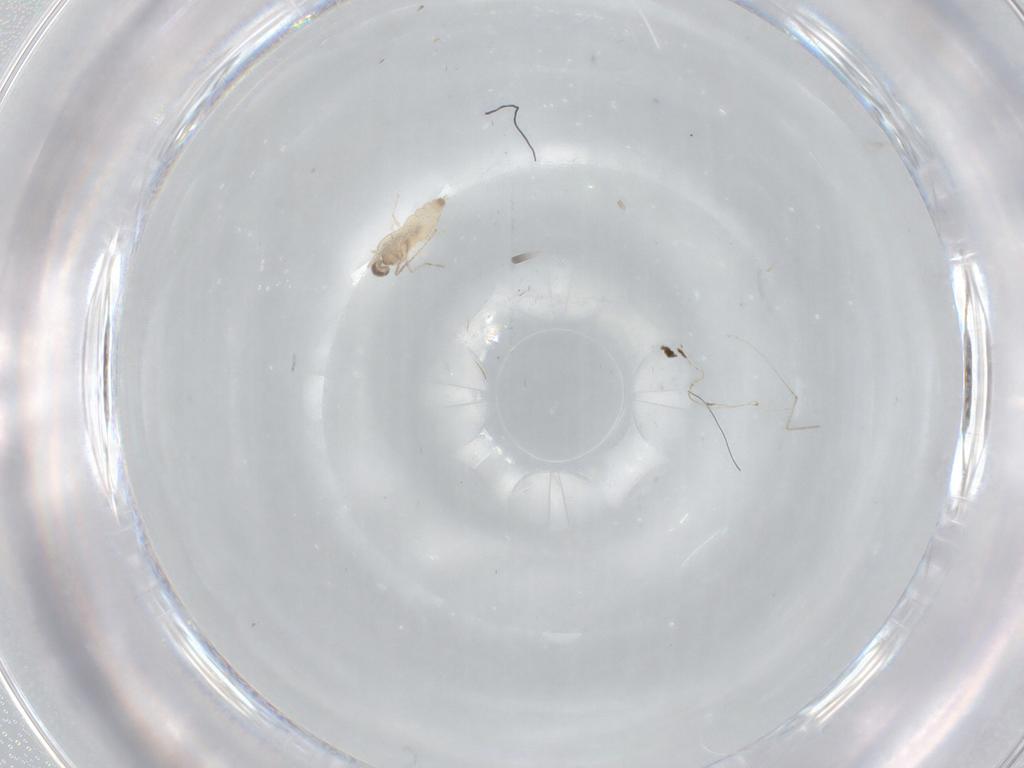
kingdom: Animalia
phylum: Arthropoda
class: Insecta
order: Diptera
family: Cecidomyiidae
